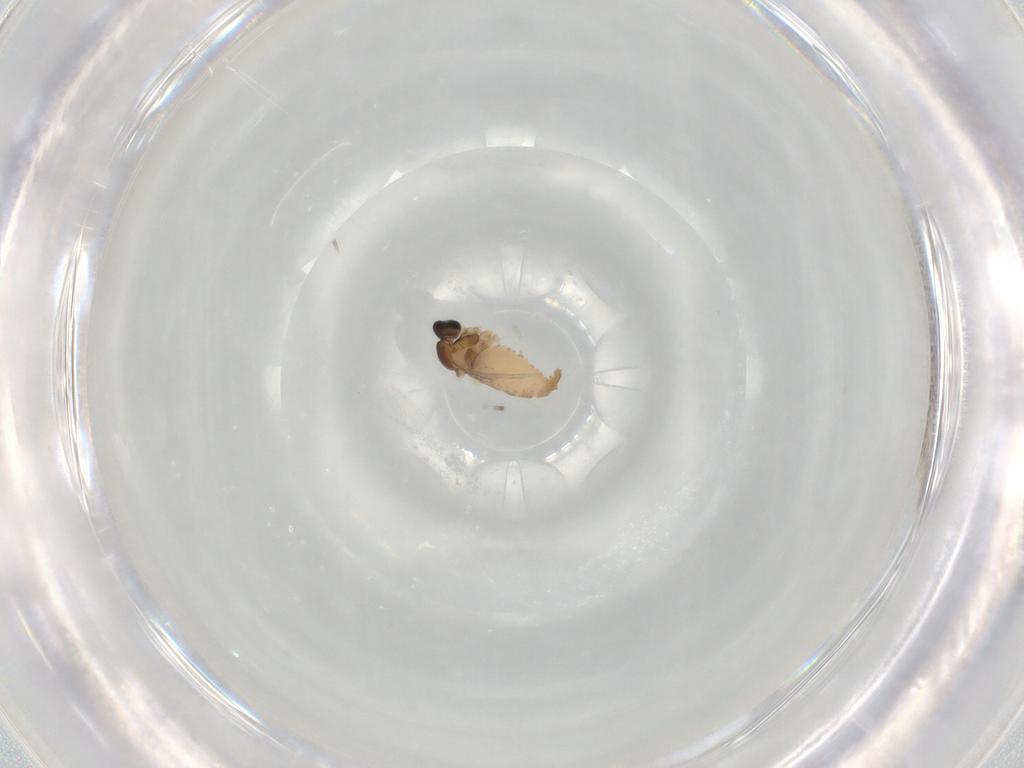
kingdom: Animalia
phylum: Arthropoda
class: Insecta
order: Diptera
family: Cecidomyiidae
